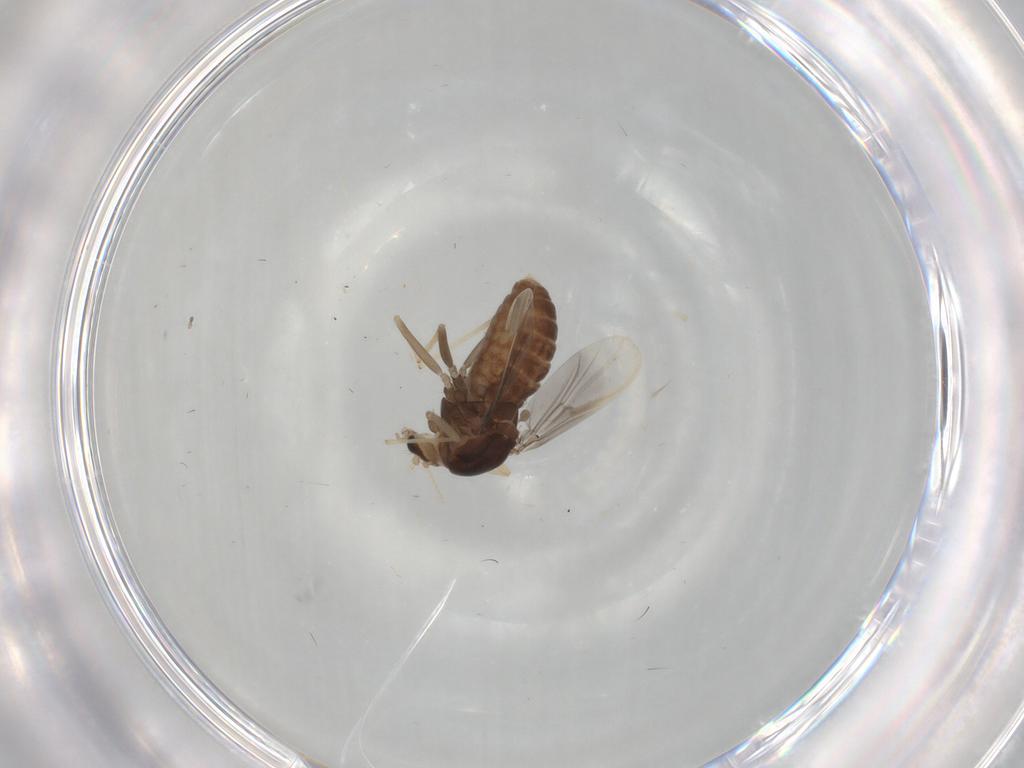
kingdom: Animalia
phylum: Arthropoda
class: Insecta
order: Diptera
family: Chironomidae
